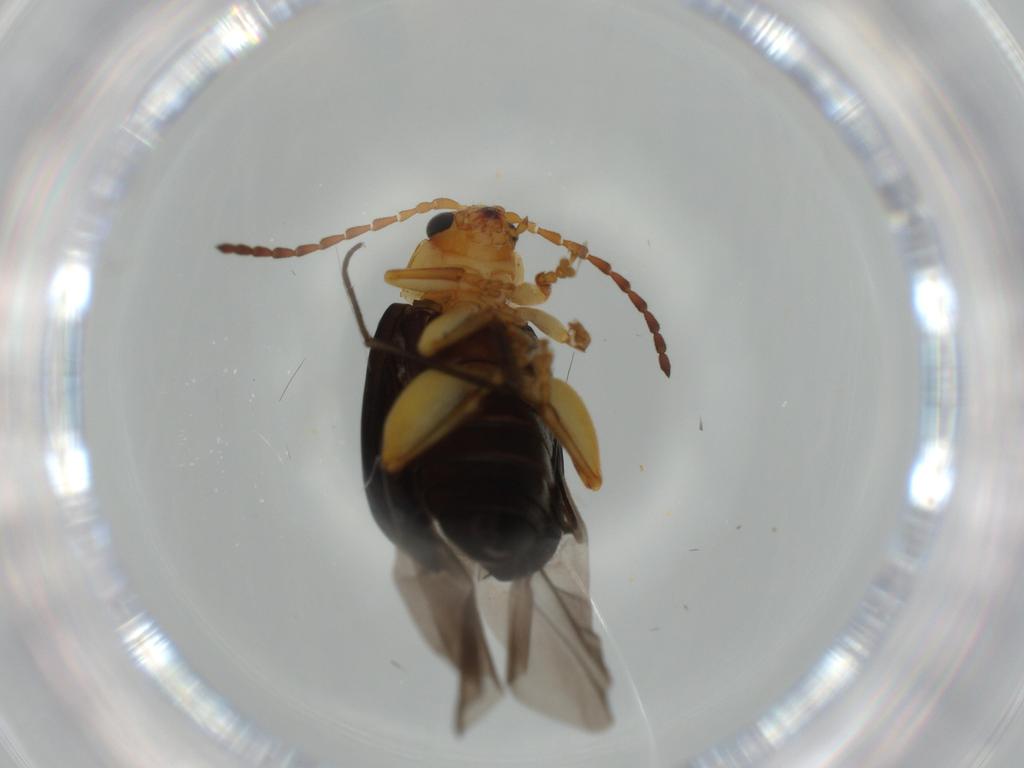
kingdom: Animalia
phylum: Arthropoda
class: Insecta
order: Coleoptera
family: Chrysomelidae
